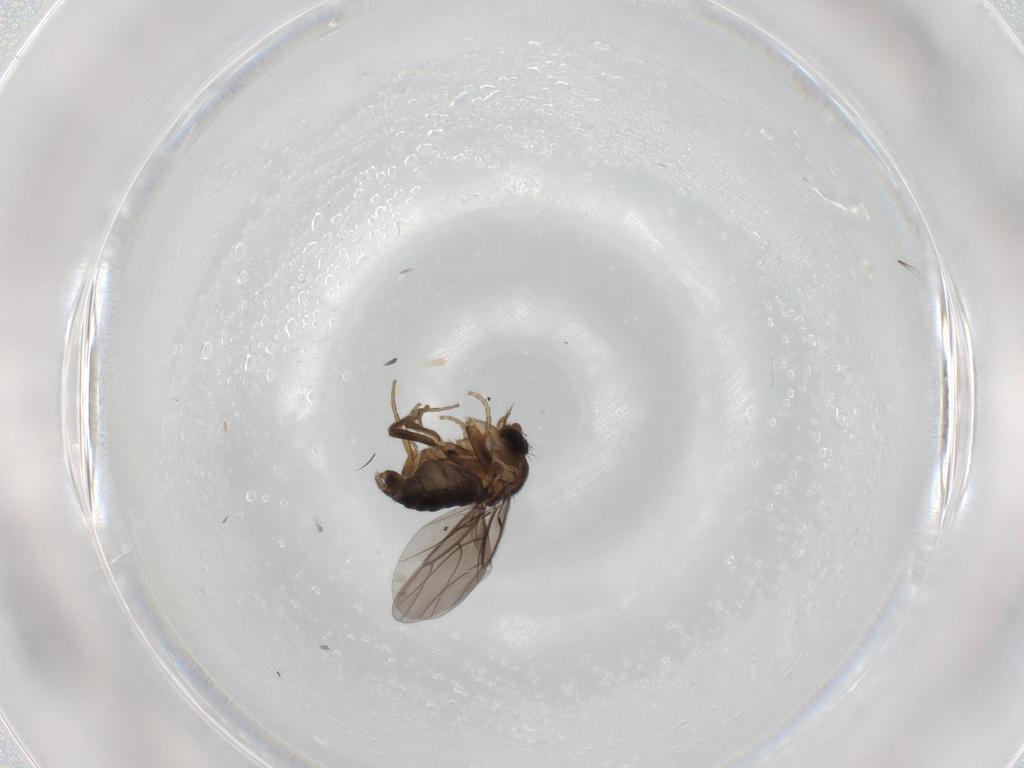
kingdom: Animalia
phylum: Arthropoda
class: Insecta
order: Diptera
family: Phoridae
